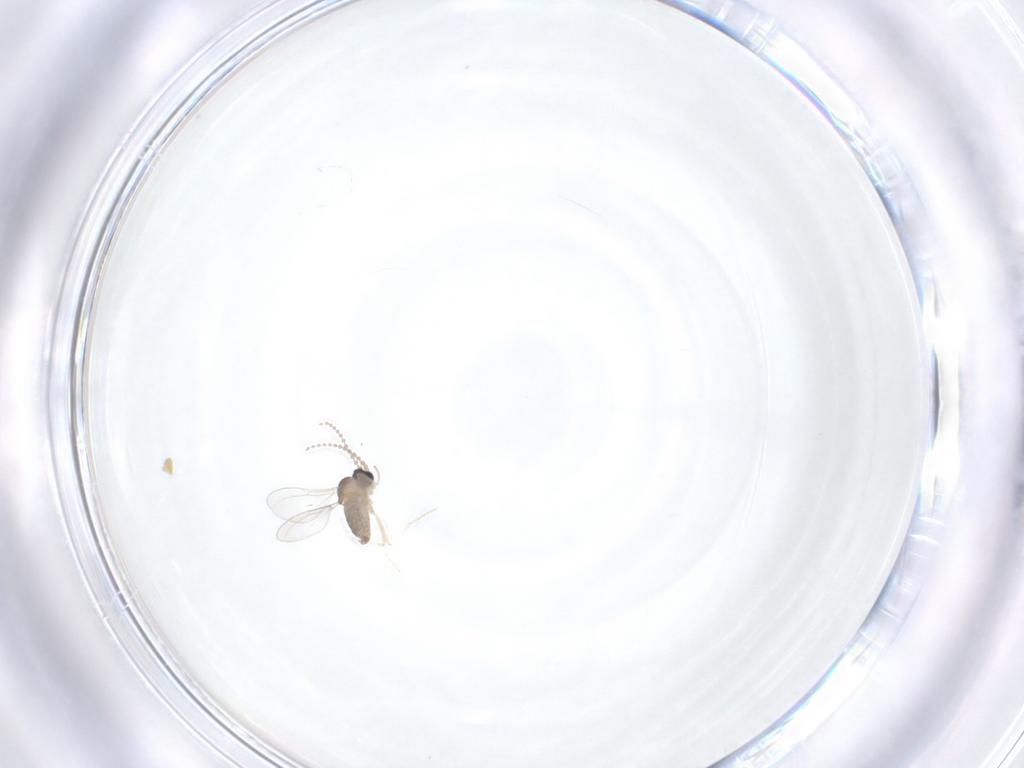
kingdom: Animalia
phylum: Arthropoda
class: Insecta
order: Diptera
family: Cecidomyiidae
